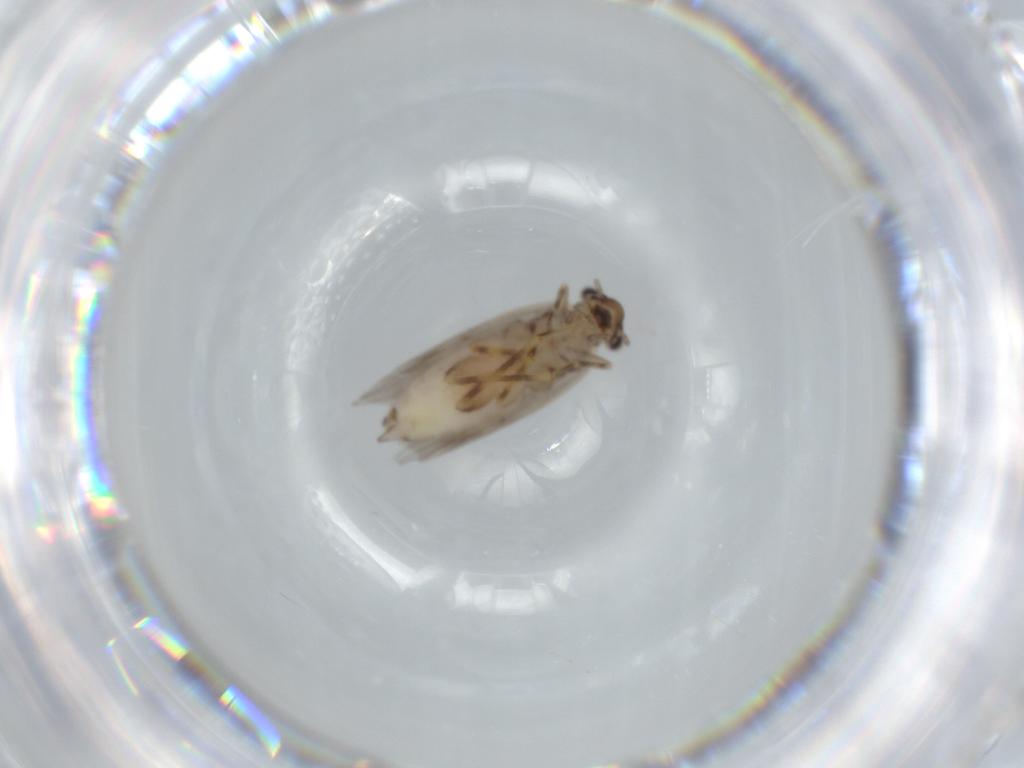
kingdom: Animalia
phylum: Arthropoda
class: Insecta
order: Psocodea
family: Lepidopsocidae
